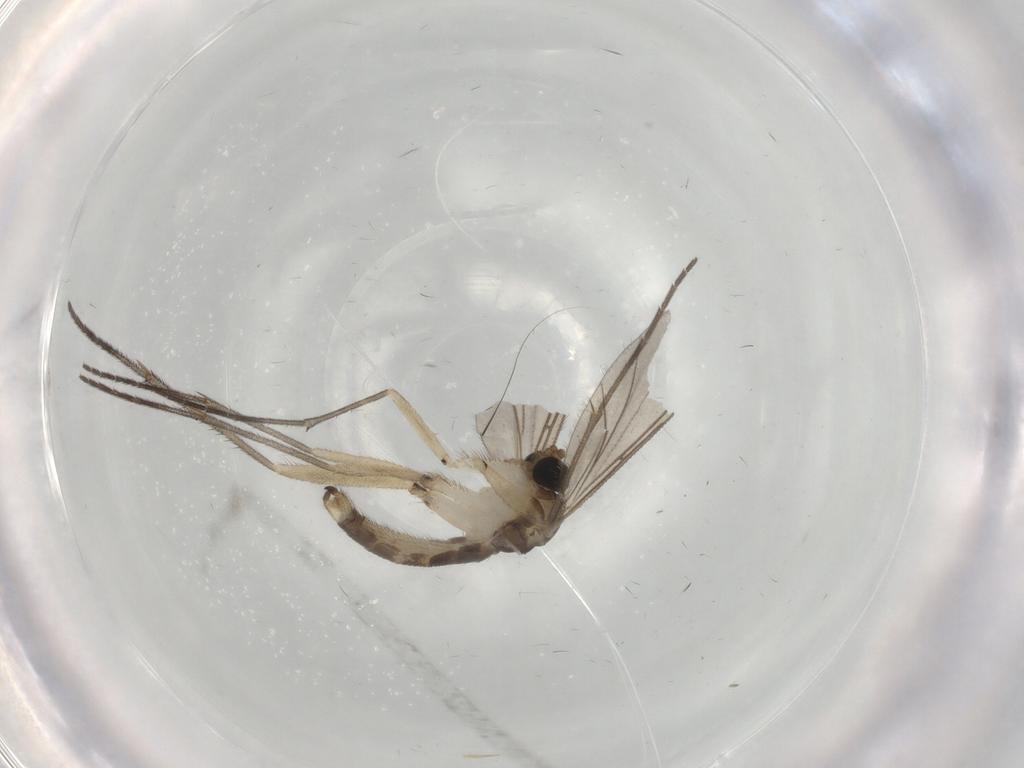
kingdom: Animalia
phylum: Arthropoda
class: Insecta
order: Diptera
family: Sciaridae
